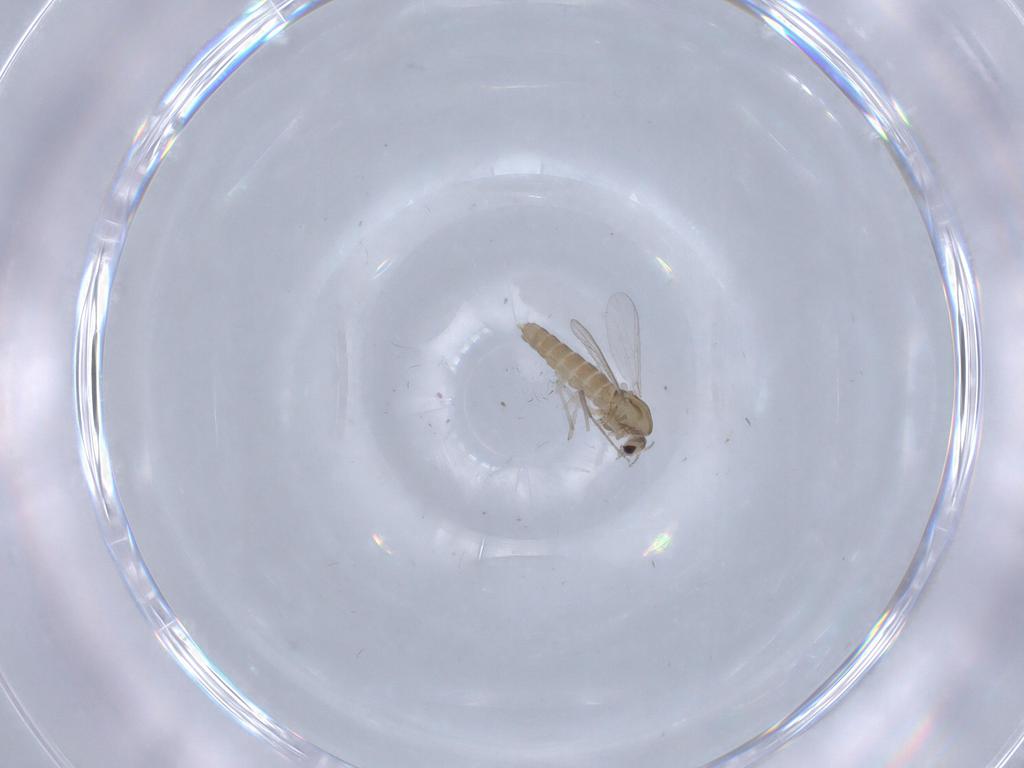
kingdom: Animalia
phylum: Arthropoda
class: Insecta
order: Diptera
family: Chironomidae
